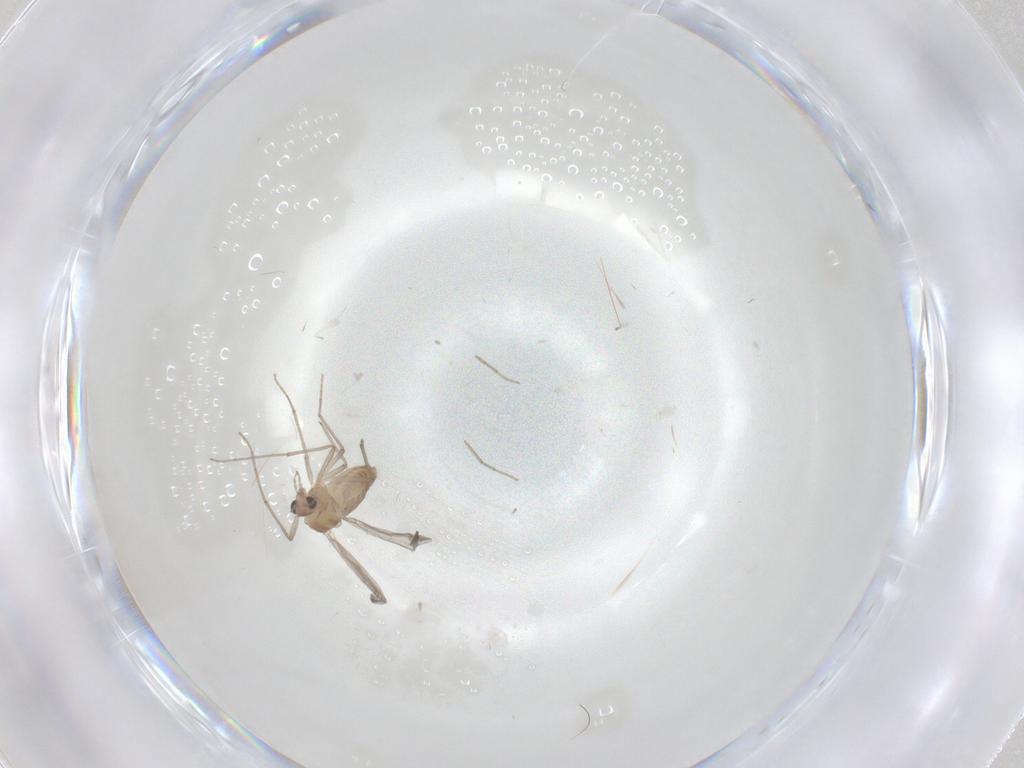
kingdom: Animalia
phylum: Arthropoda
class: Insecta
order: Diptera
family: Chironomidae
